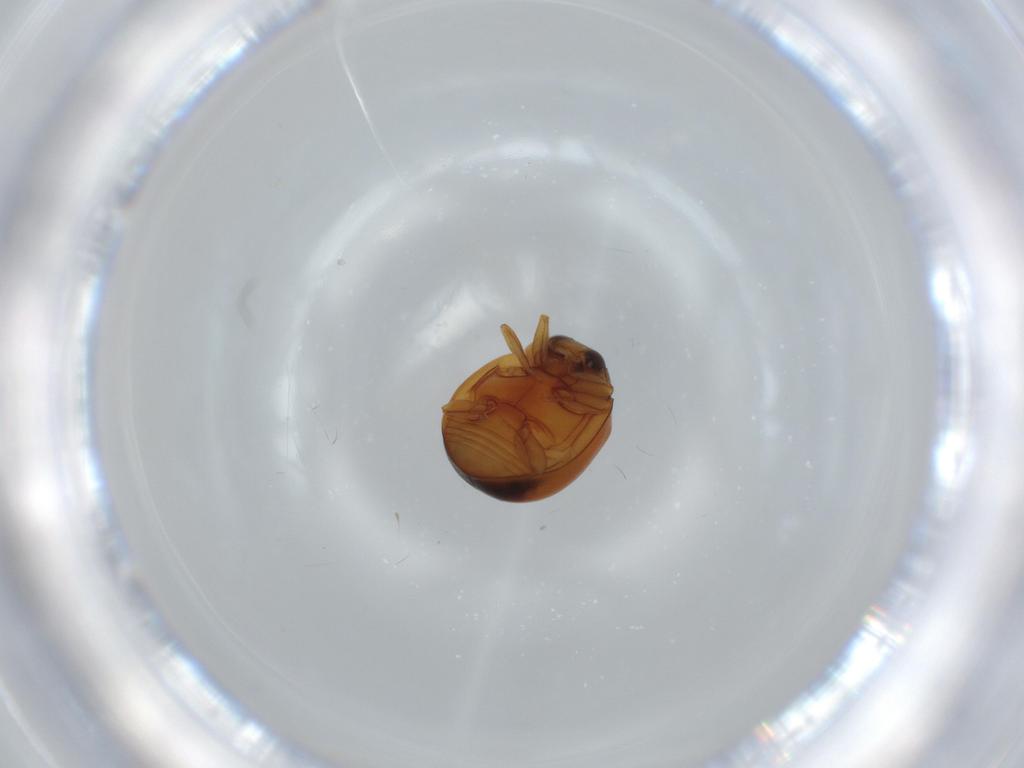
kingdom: Animalia
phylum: Arthropoda
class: Insecta
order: Coleoptera
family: Coccinellidae
